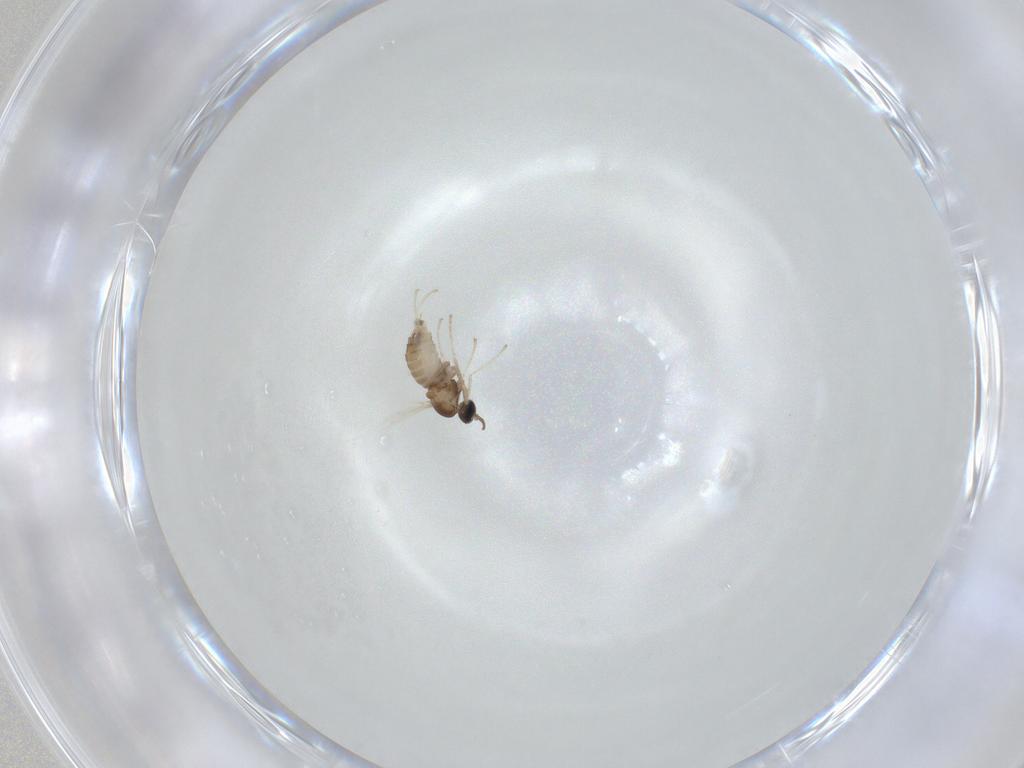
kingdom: Animalia
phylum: Arthropoda
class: Insecta
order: Diptera
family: Cecidomyiidae
